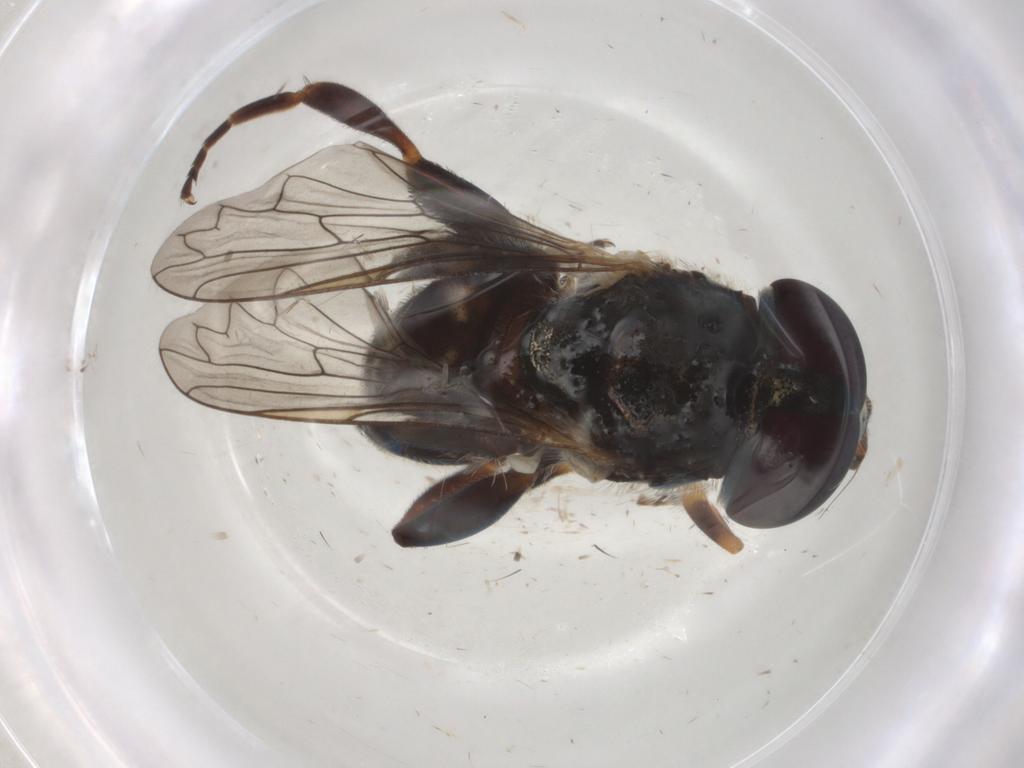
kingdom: Animalia
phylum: Arthropoda
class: Insecta
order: Diptera
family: Syrphidae
